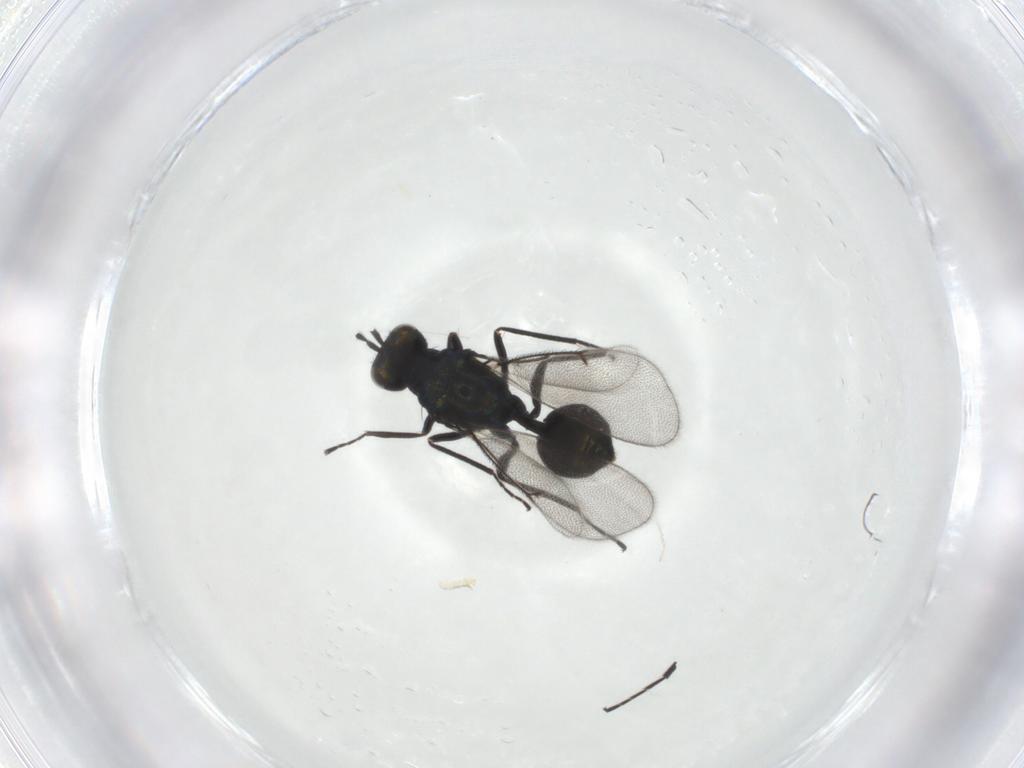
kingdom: Animalia
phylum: Arthropoda
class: Insecta
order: Hymenoptera
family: Eulophidae
